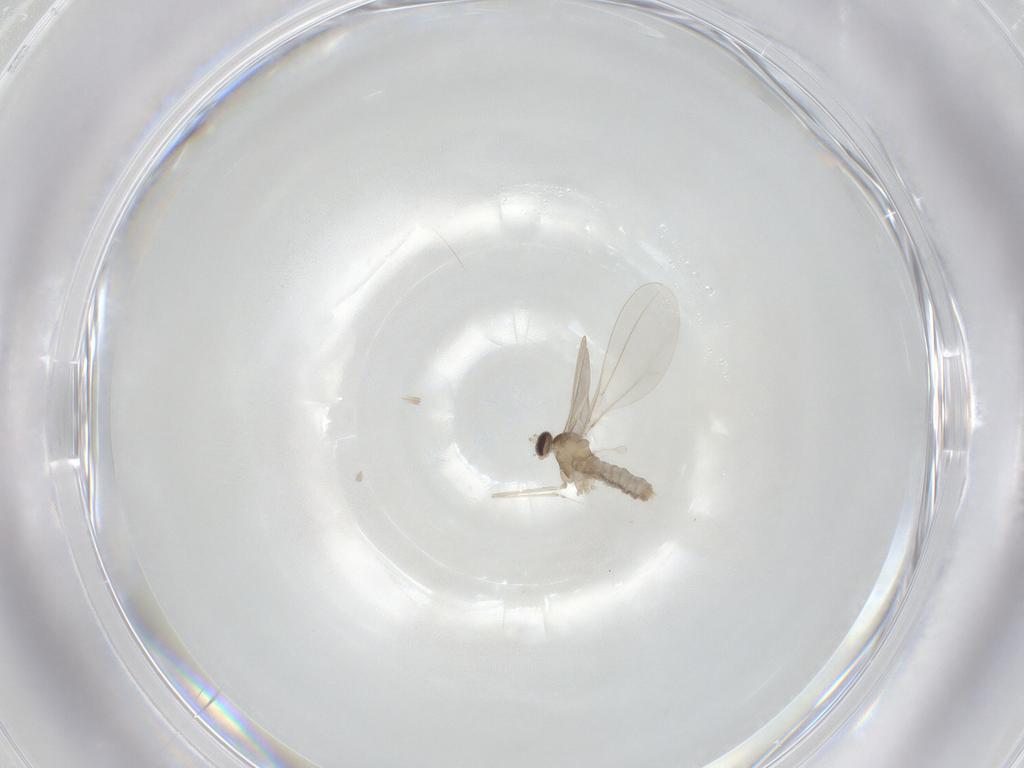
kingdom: Animalia
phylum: Arthropoda
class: Insecta
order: Diptera
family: Cecidomyiidae
